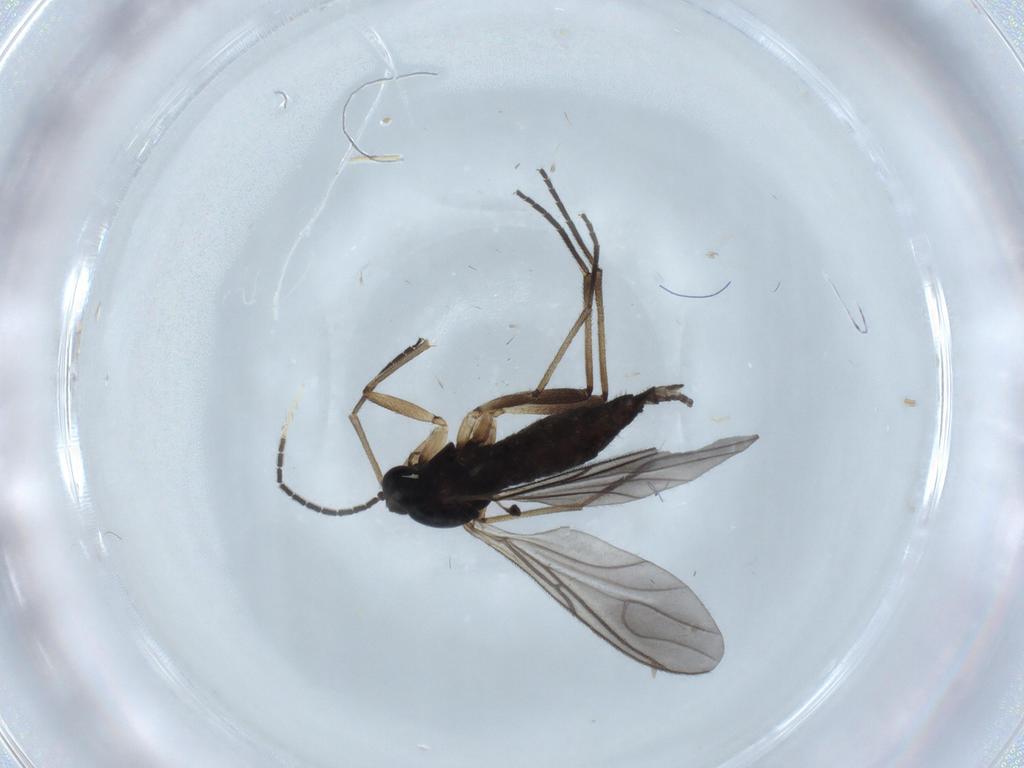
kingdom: Animalia
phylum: Arthropoda
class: Insecta
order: Diptera
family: Sciaridae
